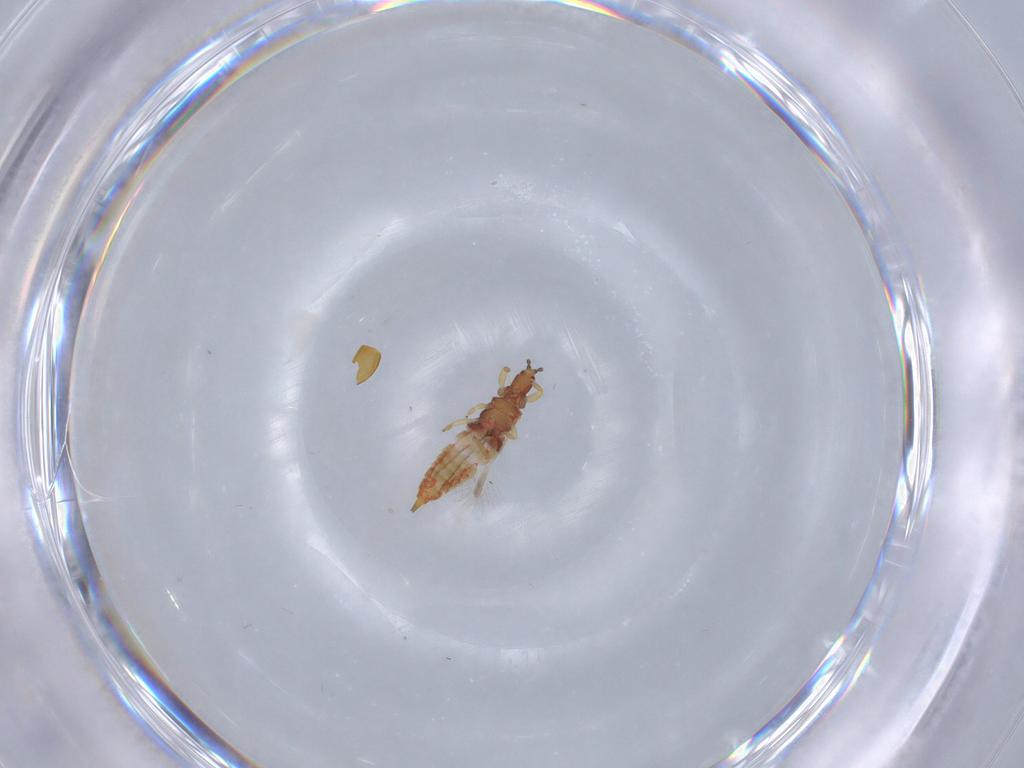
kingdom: Animalia
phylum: Arthropoda
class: Insecta
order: Thysanoptera
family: Phlaeothripidae
